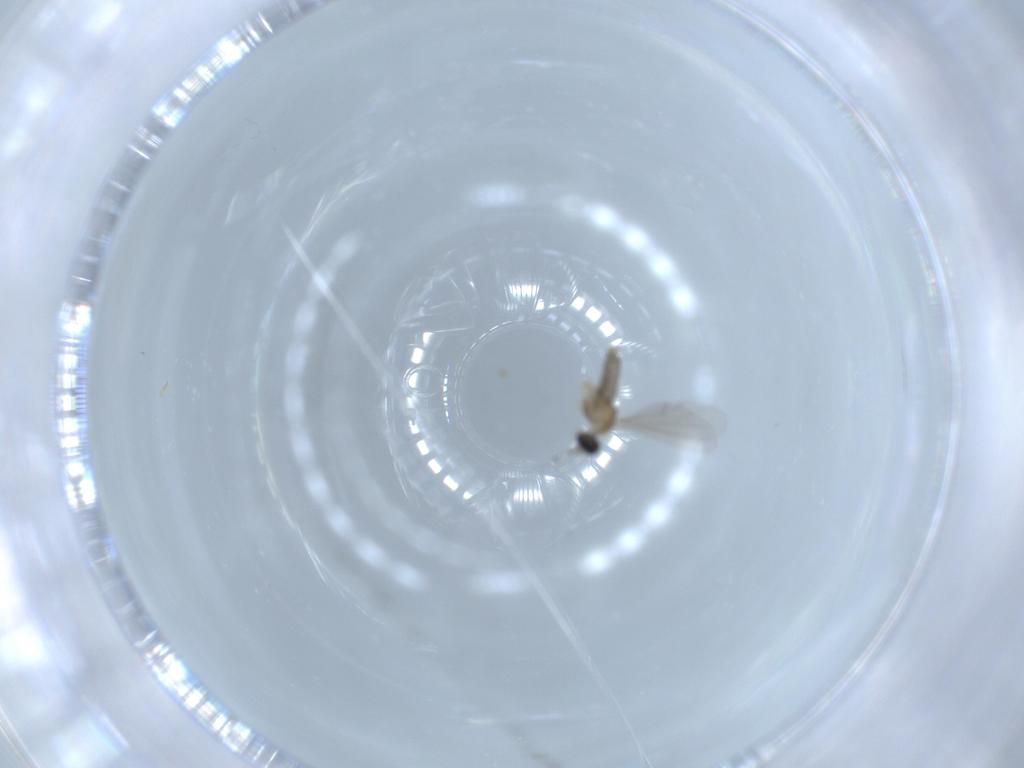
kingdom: Animalia
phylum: Arthropoda
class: Insecta
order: Diptera
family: Cecidomyiidae
